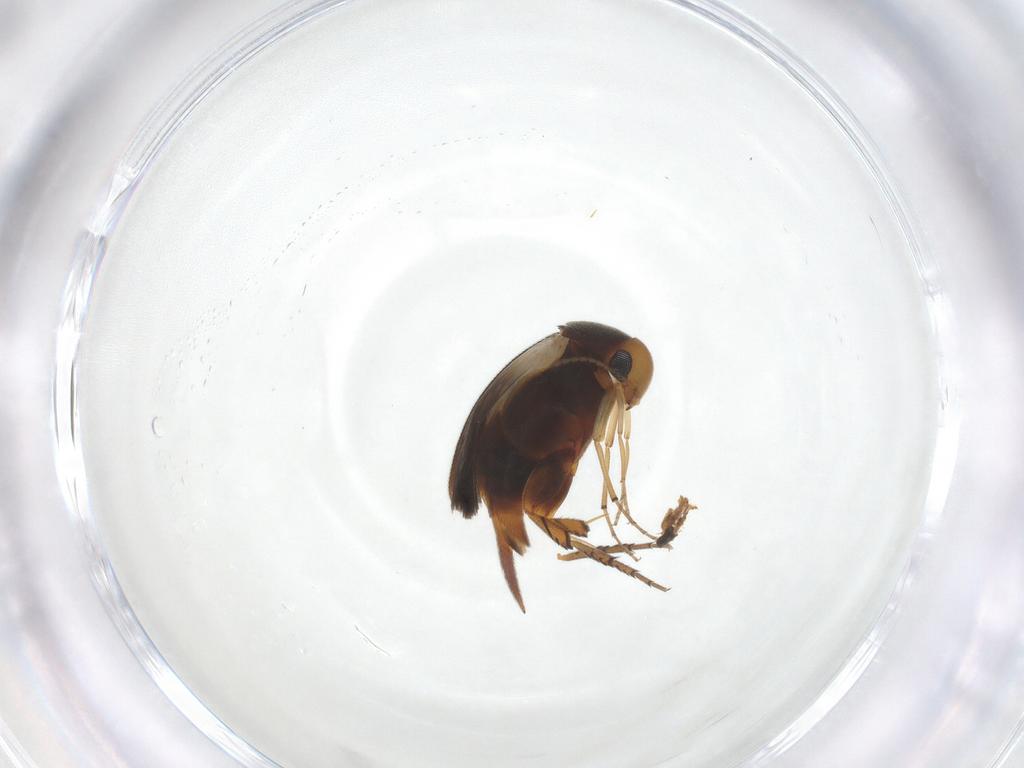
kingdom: Animalia
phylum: Arthropoda
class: Insecta
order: Coleoptera
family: Mordellidae
